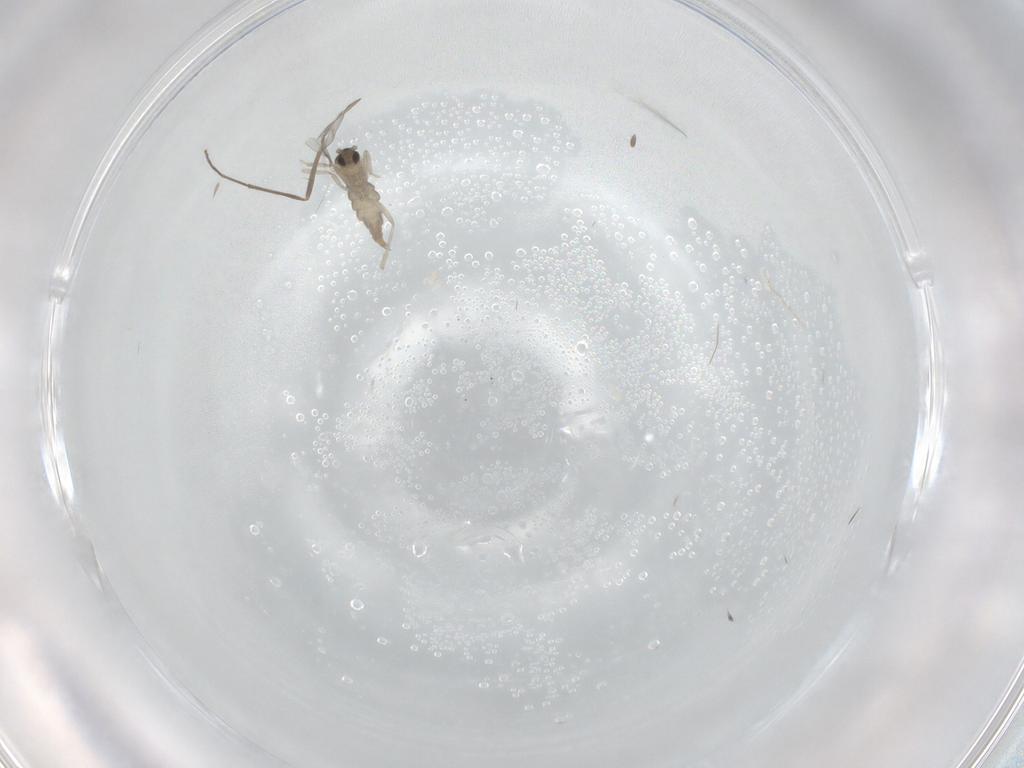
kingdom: Animalia
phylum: Arthropoda
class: Insecta
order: Diptera
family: Cecidomyiidae
